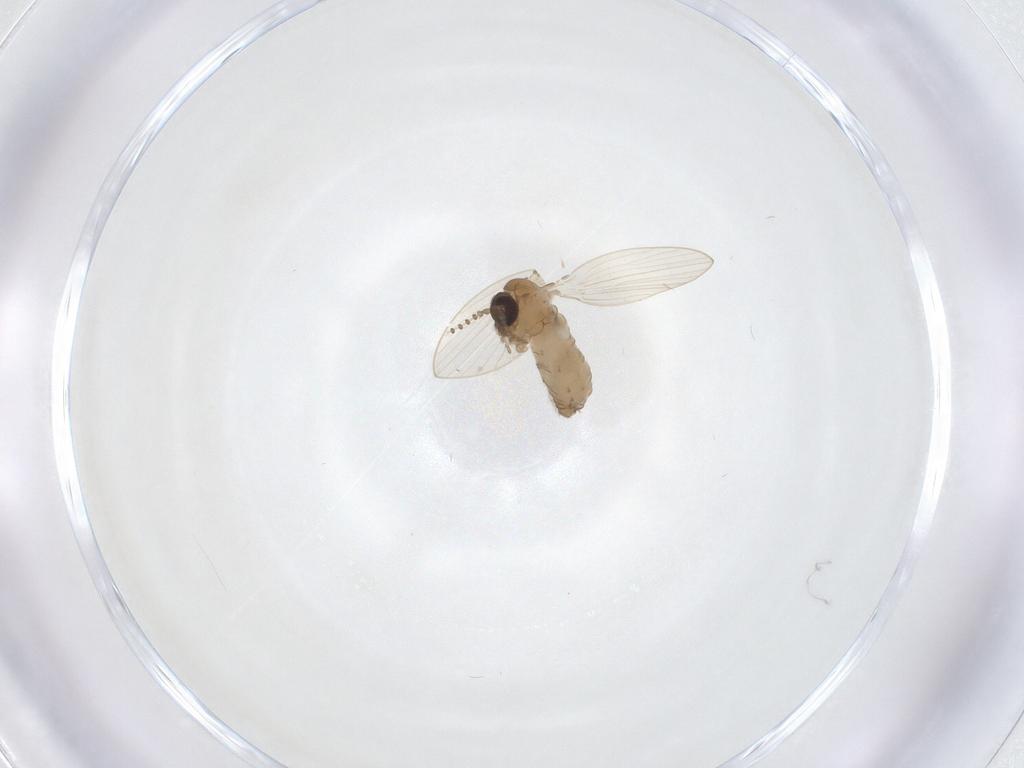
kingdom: Animalia
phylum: Arthropoda
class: Insecta
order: Diptera
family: Psychodidae
